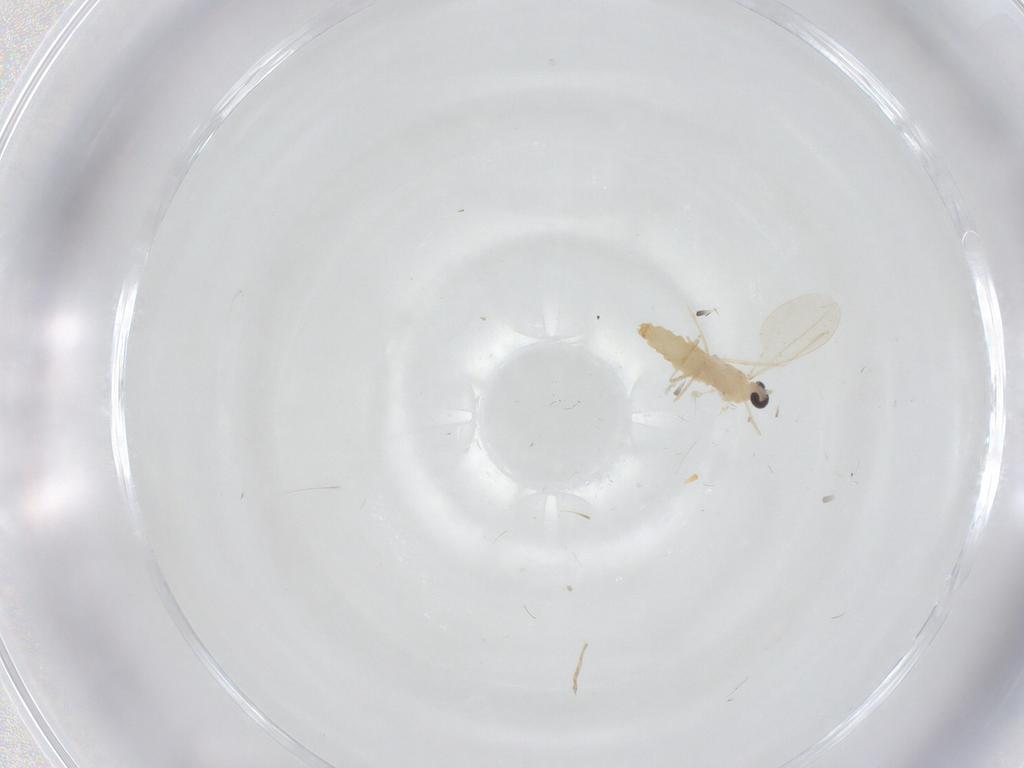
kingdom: Animalia
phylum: Arthropoda
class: Insecta
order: Diptera
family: Cecidomyiidae
